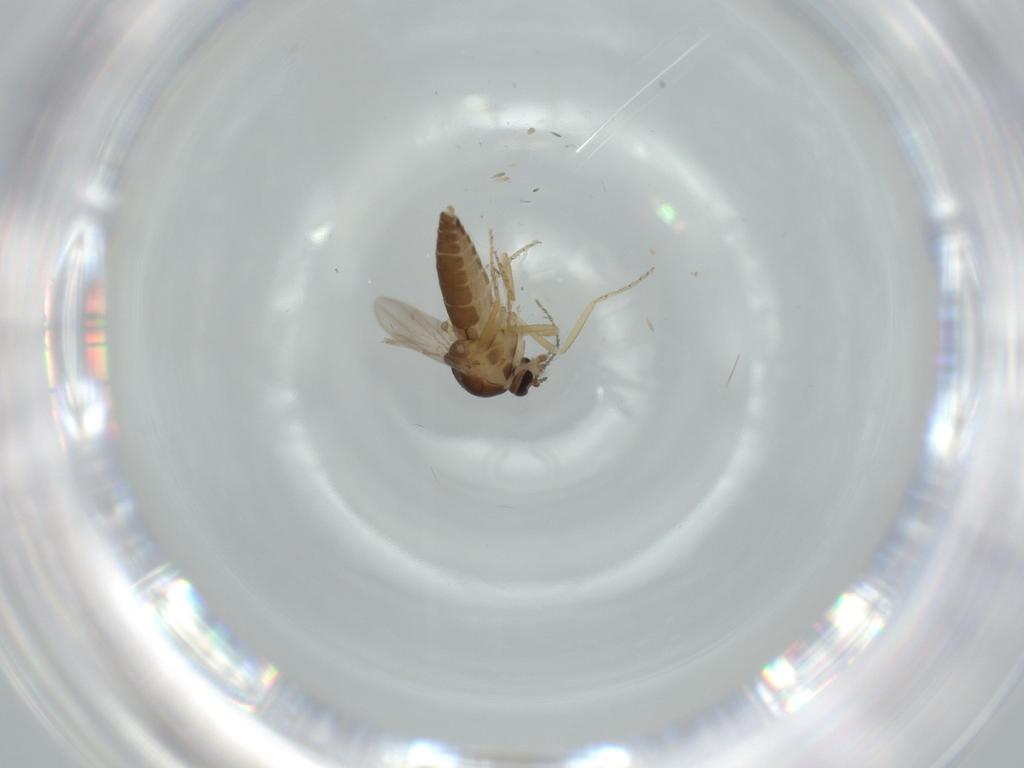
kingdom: Animalia
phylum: Arthropoda
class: Insecta
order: Diptera
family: Ceratopogonidae
